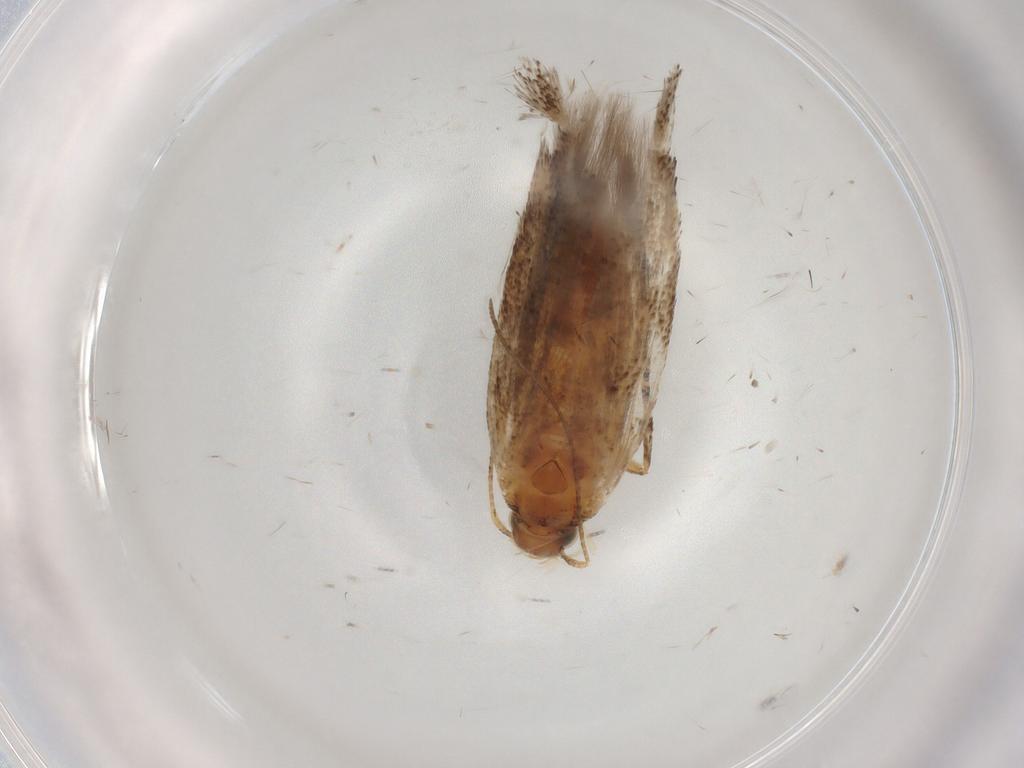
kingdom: Animalia
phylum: Arthropoda
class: Insecta
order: Lepidoptera
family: Gelechiidae
